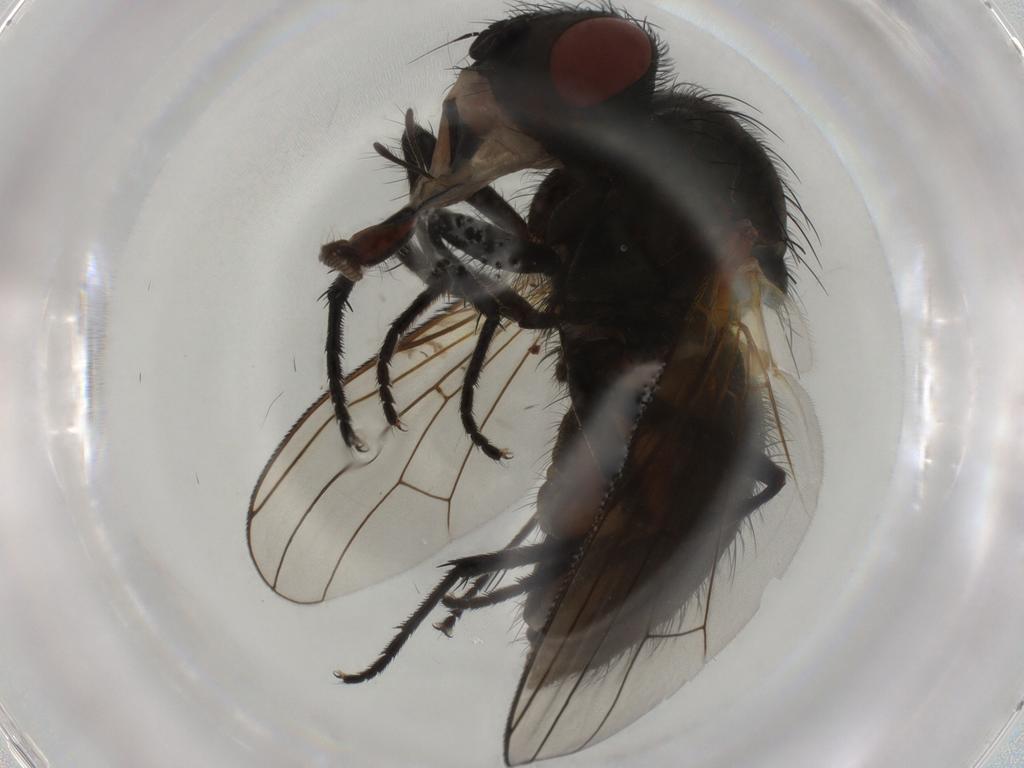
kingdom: Animalia
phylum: Arthropoda
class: Insecta
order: Diptera
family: Anthomyiidae
